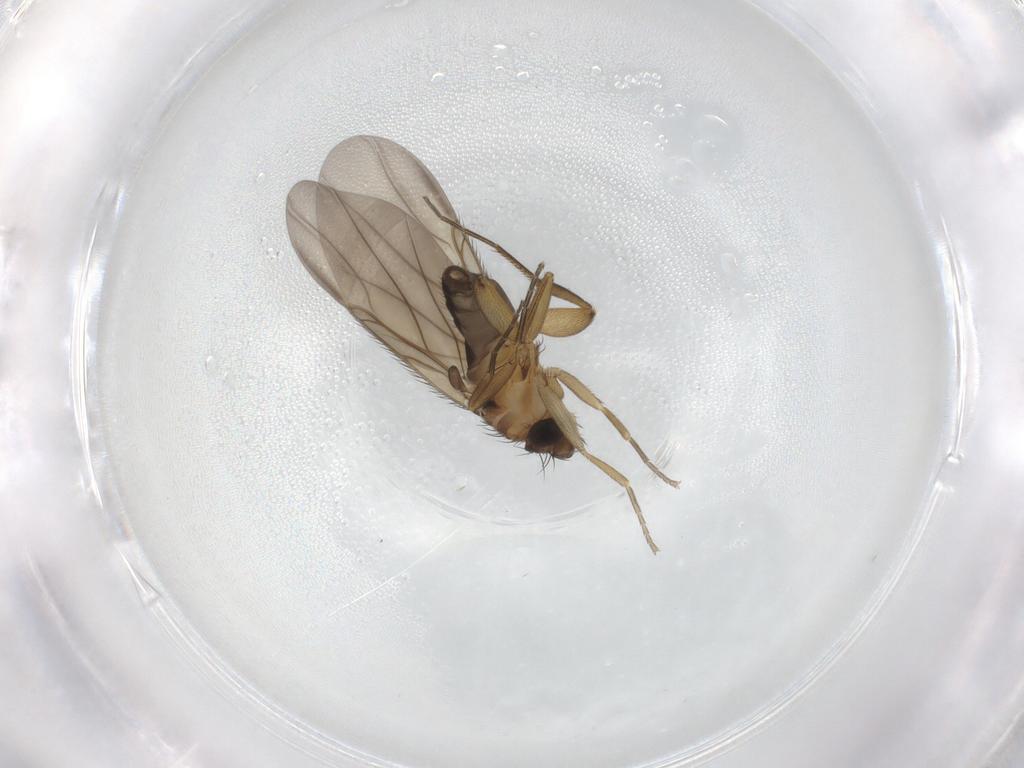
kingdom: Animalia
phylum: Arthropoda
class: Insecta
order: Diptera
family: Phoridae
